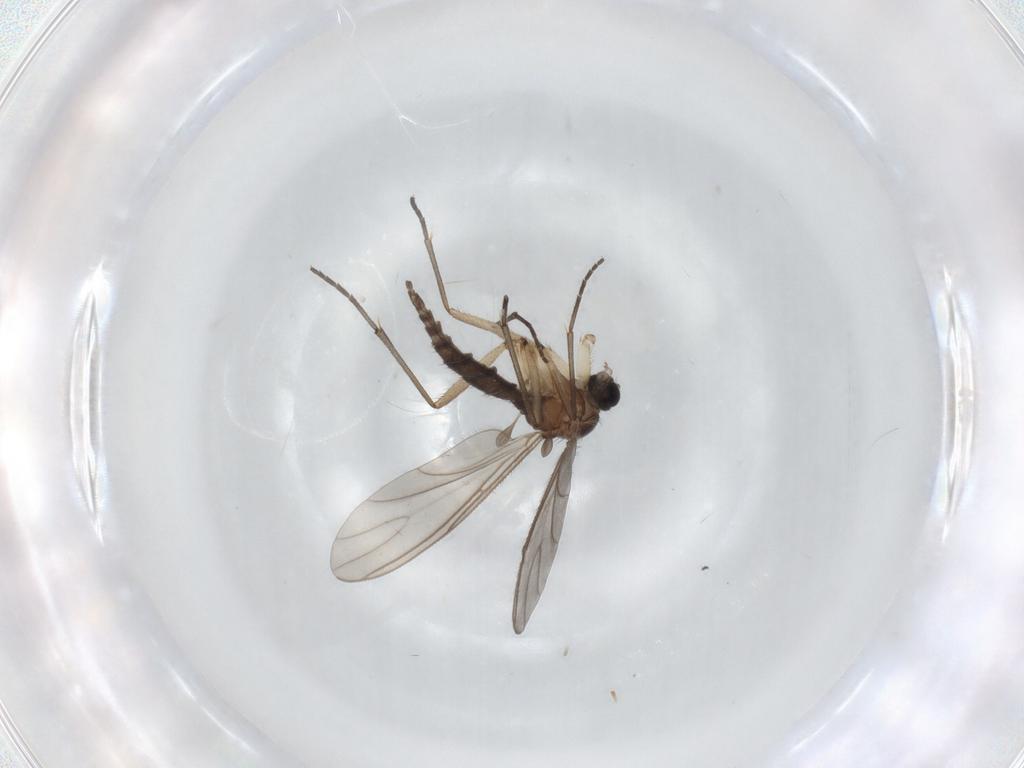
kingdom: Animalia
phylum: Arthropoda
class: Insecta
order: Diptera
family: Sciaridae
